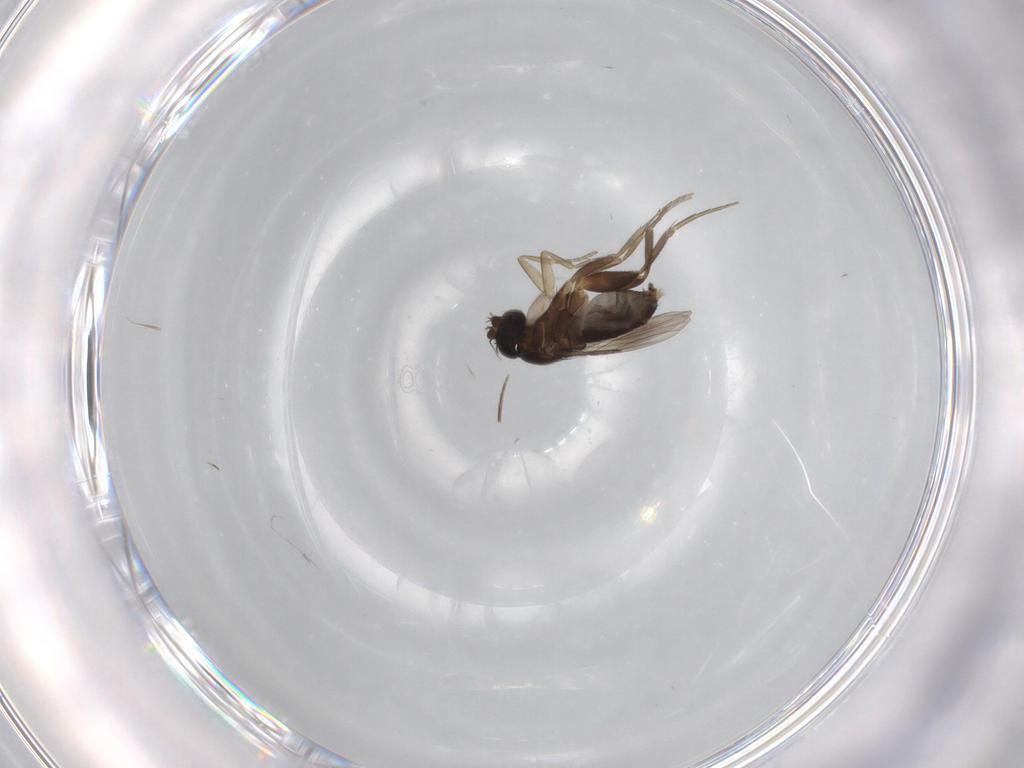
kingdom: Animalia
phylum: Arthropoda
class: Insecta
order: Diptera
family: Phoridae
